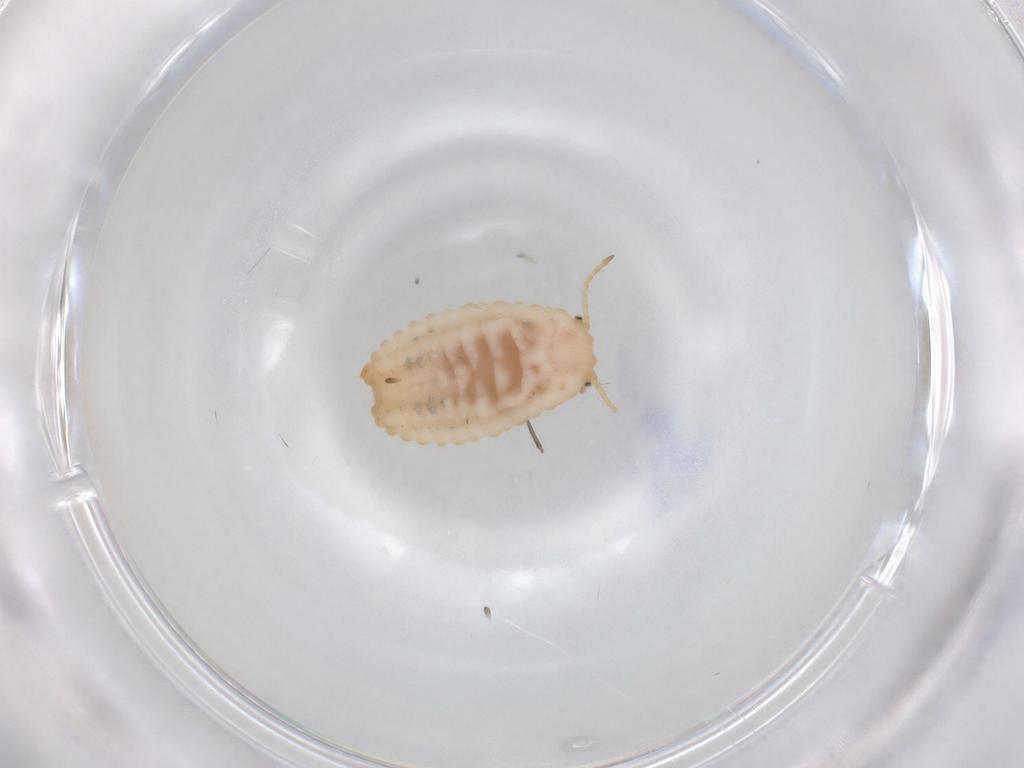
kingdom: Animalia
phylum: Arthropoda
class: Insecta
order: Hemiptera
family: Coccoidea_incertae_sedis
